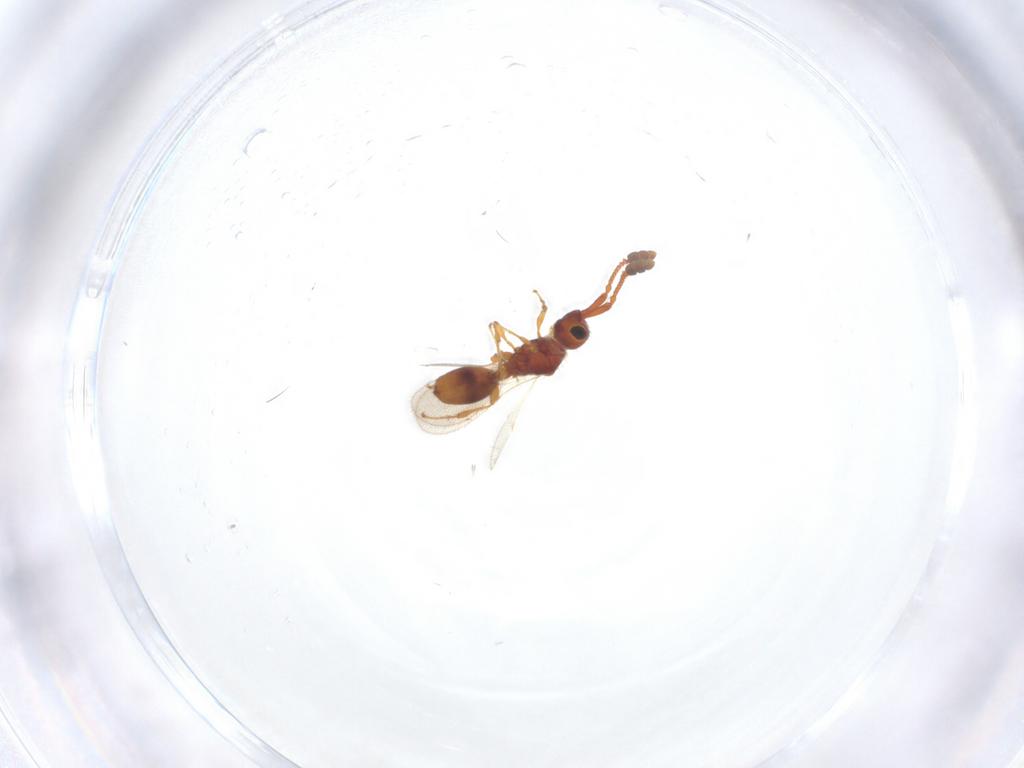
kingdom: Animalia
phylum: Arthropoda
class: Insecta
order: Hymenoptera
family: Diapriidae
